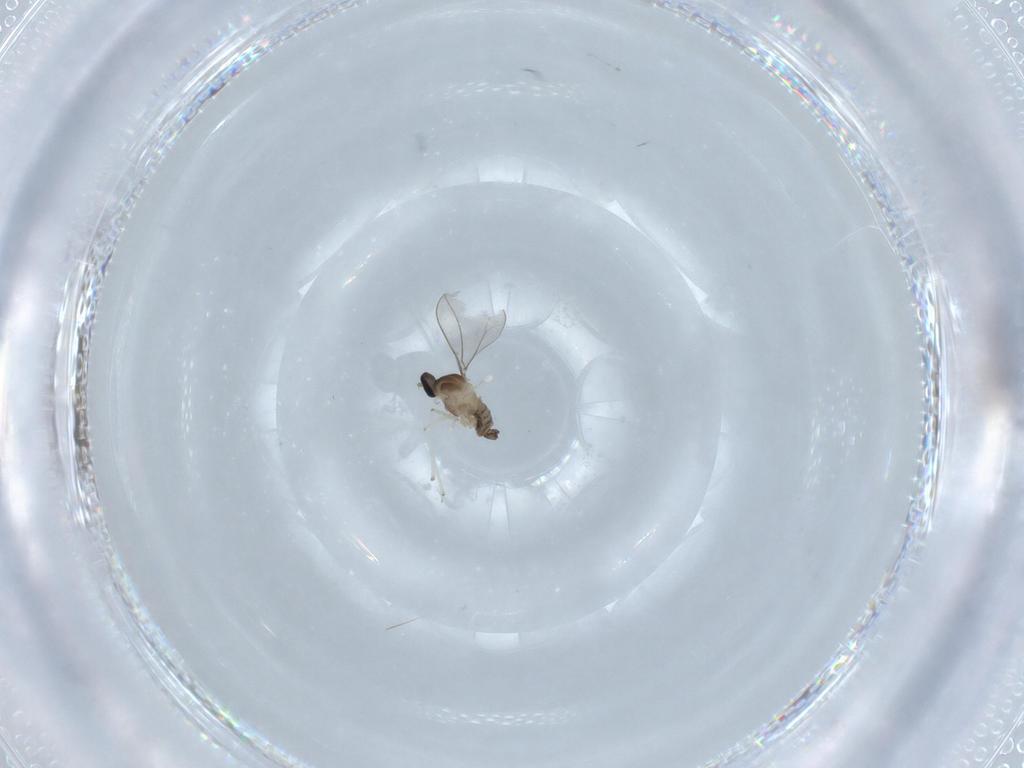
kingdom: Animalia
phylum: Arthropoda
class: Insecta
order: Diptera
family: Cecidomyiidae
